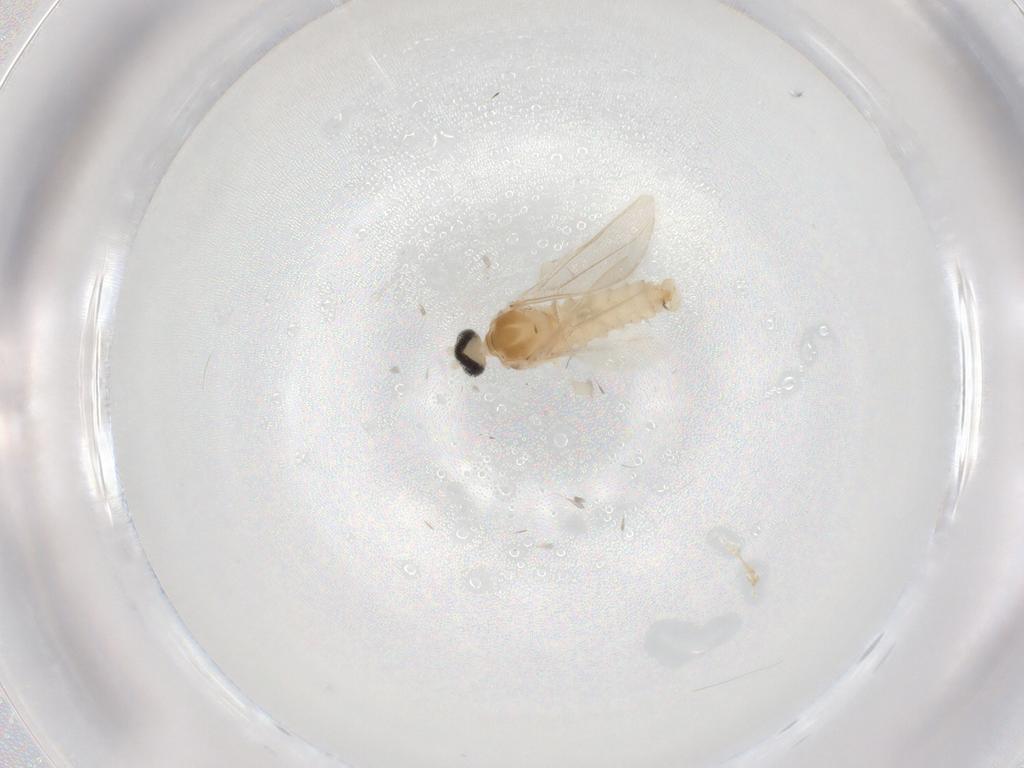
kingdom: Animalia
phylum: Arthropoda
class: Insecta
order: Diptera
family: Cecidomyiidae
